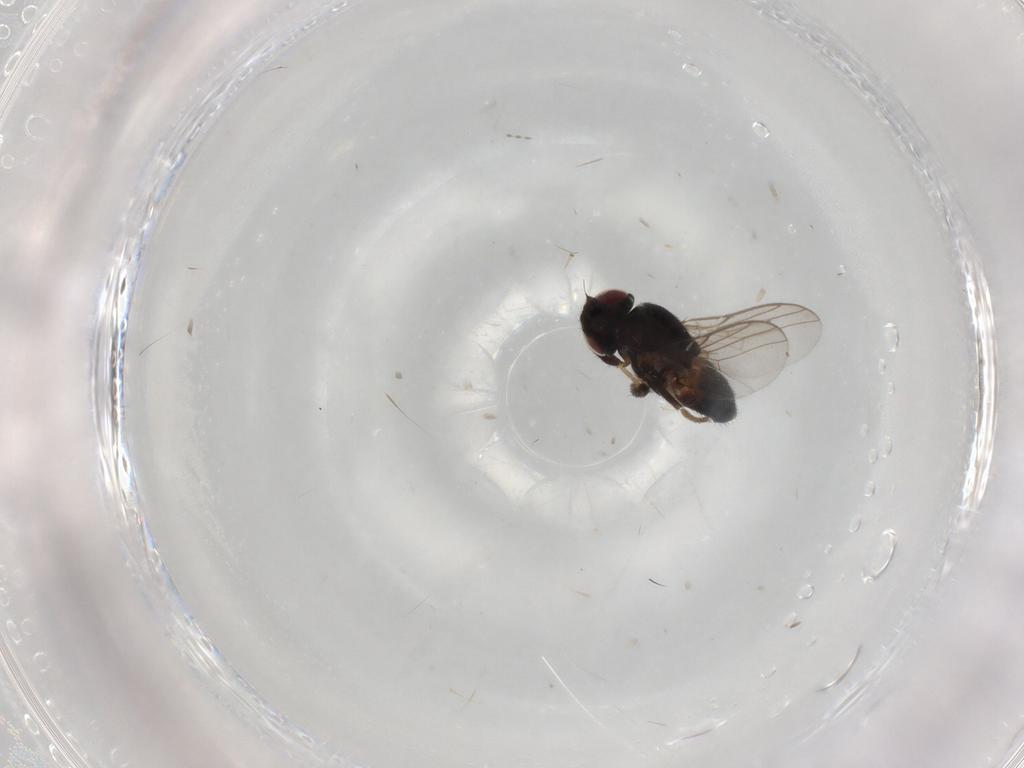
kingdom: Animalia
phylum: Arthropoda
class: Insecta
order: Diptera
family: Chloropidae
